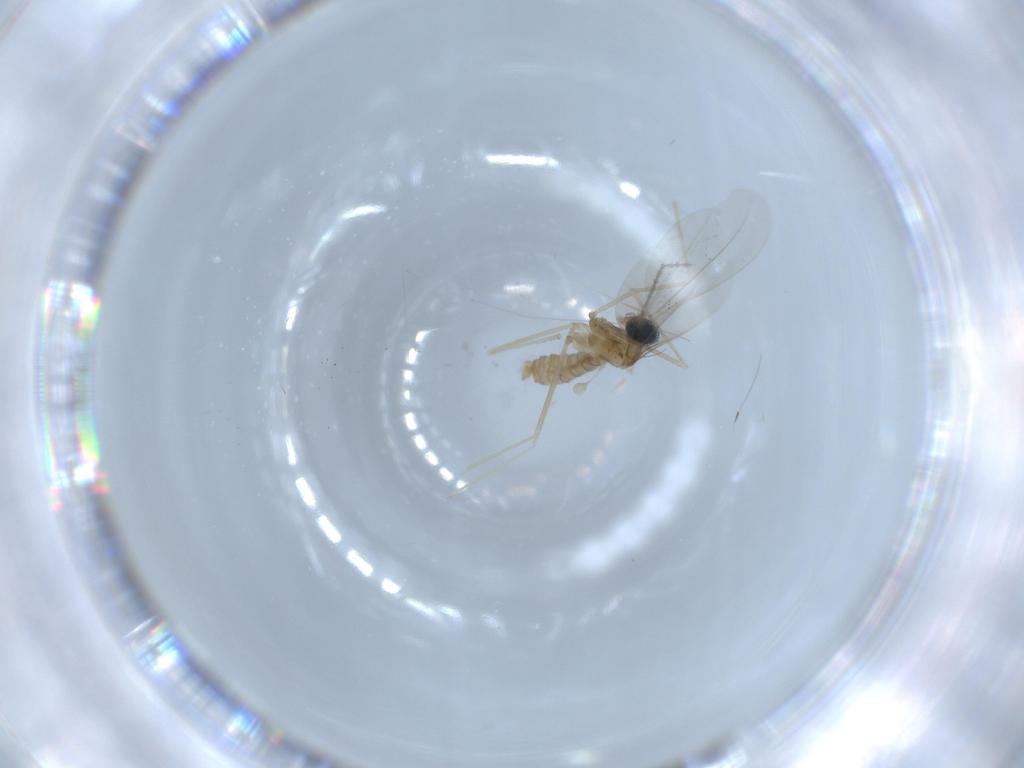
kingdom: Animalia
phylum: Arthropoda
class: Insecta
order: Diptera
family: Cecidomyiidae
